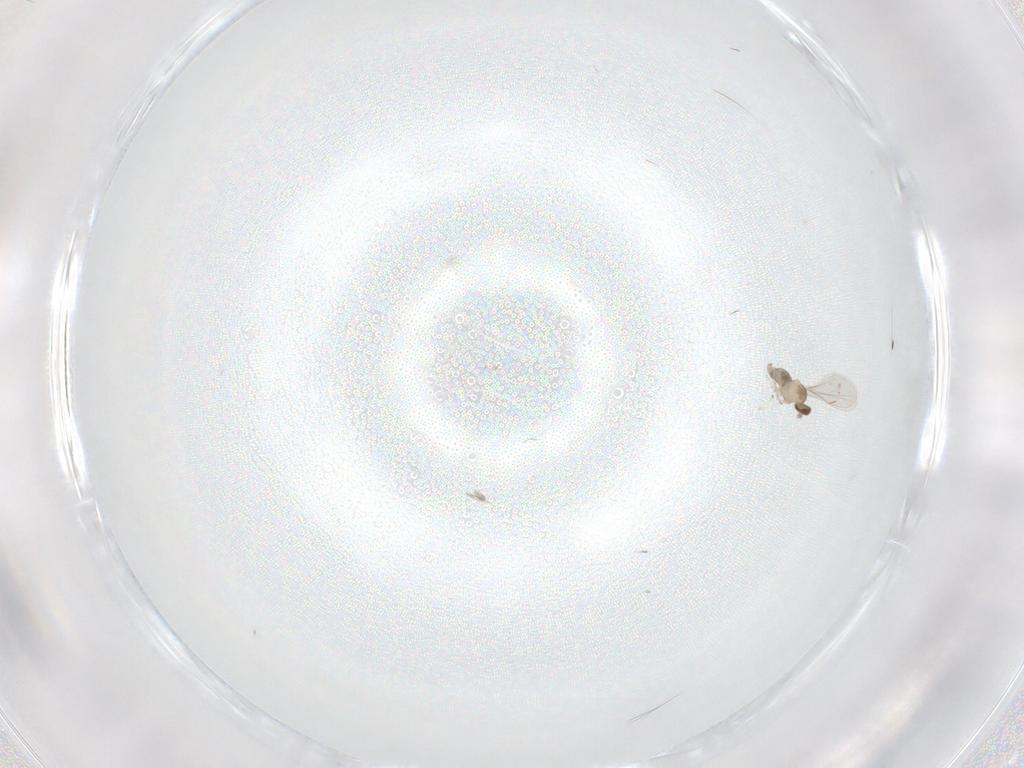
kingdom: Animalia
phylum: Arthropoda
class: Insecta
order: Diptera
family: Cecidomyiidae
